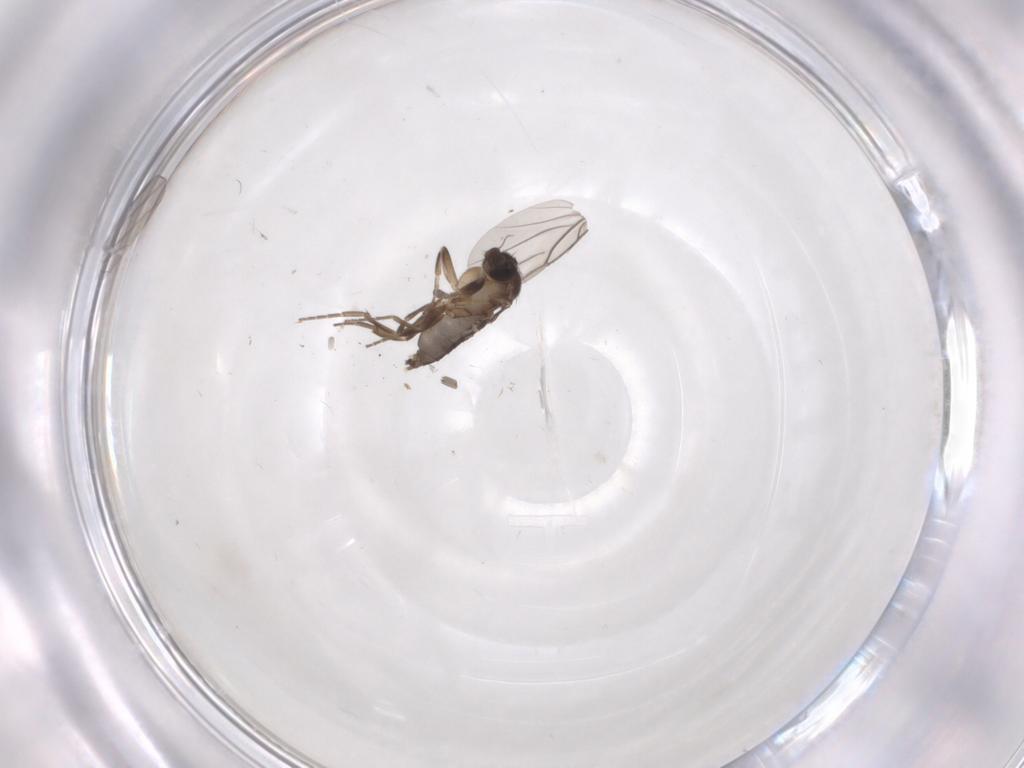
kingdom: Animalia
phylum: Arthropoda
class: Insecta
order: Diptera
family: Phoridae
